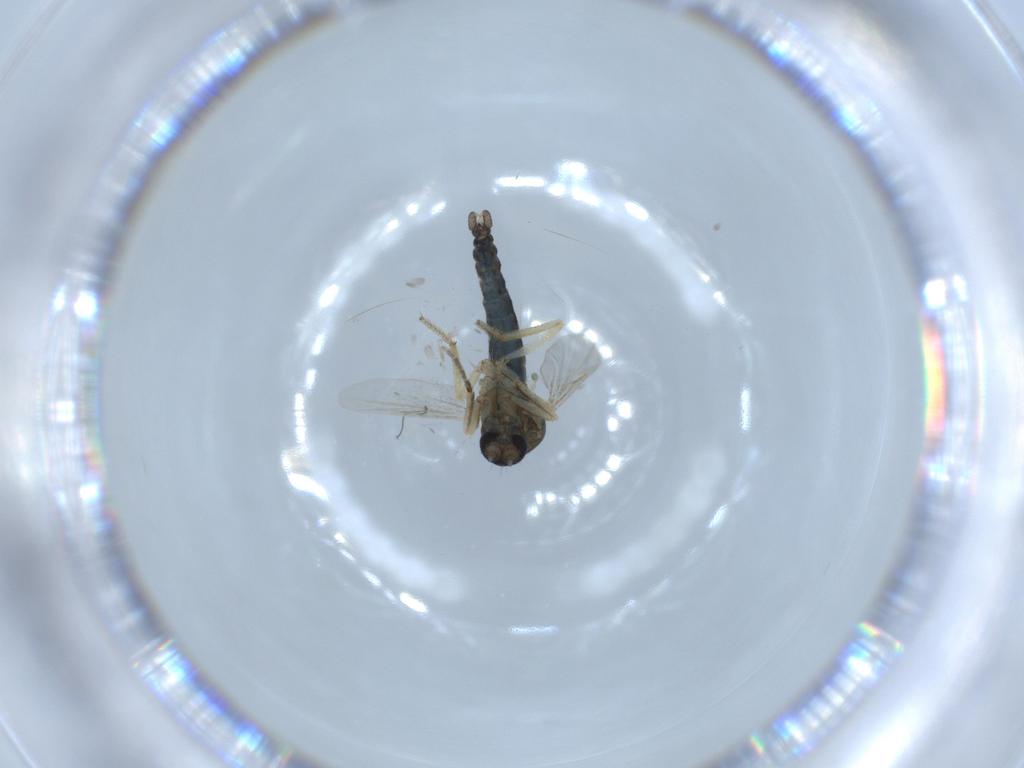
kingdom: Animalia
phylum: Arthropoda
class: Insecta
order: Diptera
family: Ceratopogonidae
